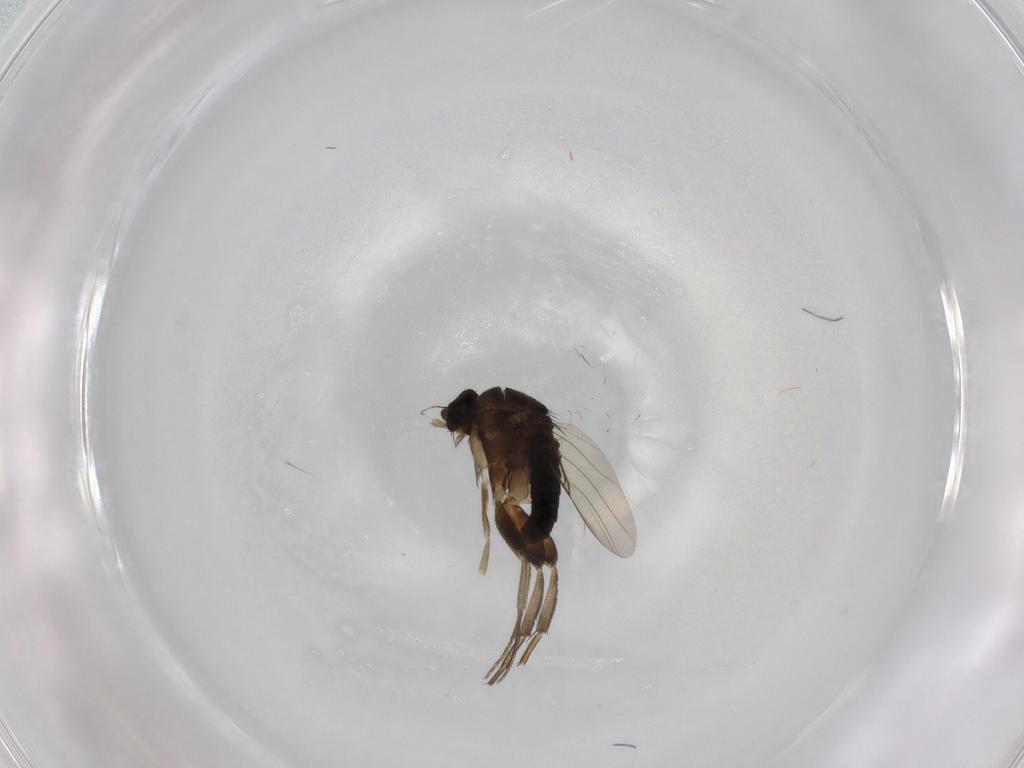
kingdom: Animalia
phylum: Arthropoda
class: Insecta
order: Diptera
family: Phoridae
